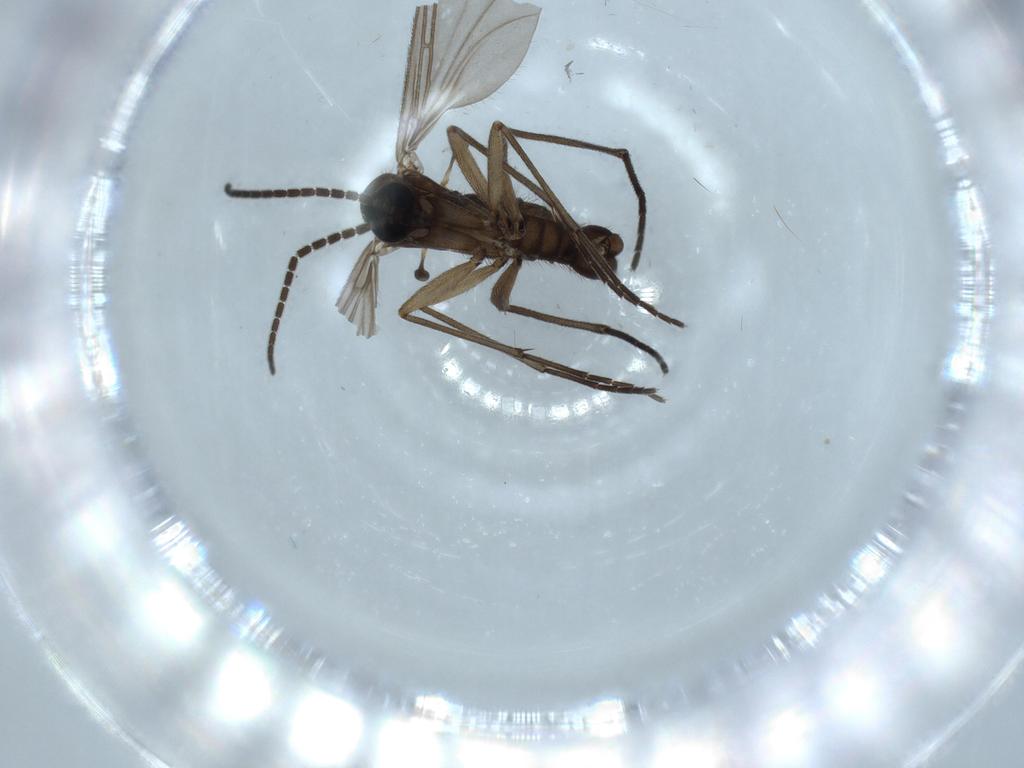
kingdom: Animalia
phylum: Arthropoda
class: Insecta
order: Diptera
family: Sciaridae
